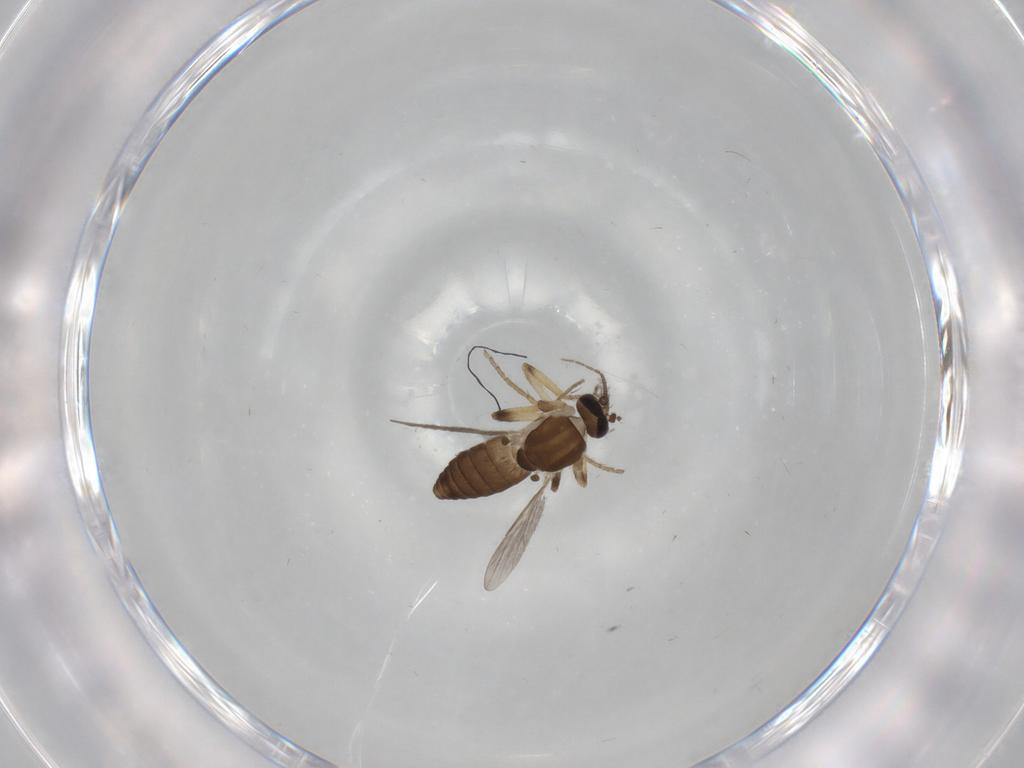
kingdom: Animalia
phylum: Arthropoda
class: Insecta
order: Diptera
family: Ceratopogonidae
